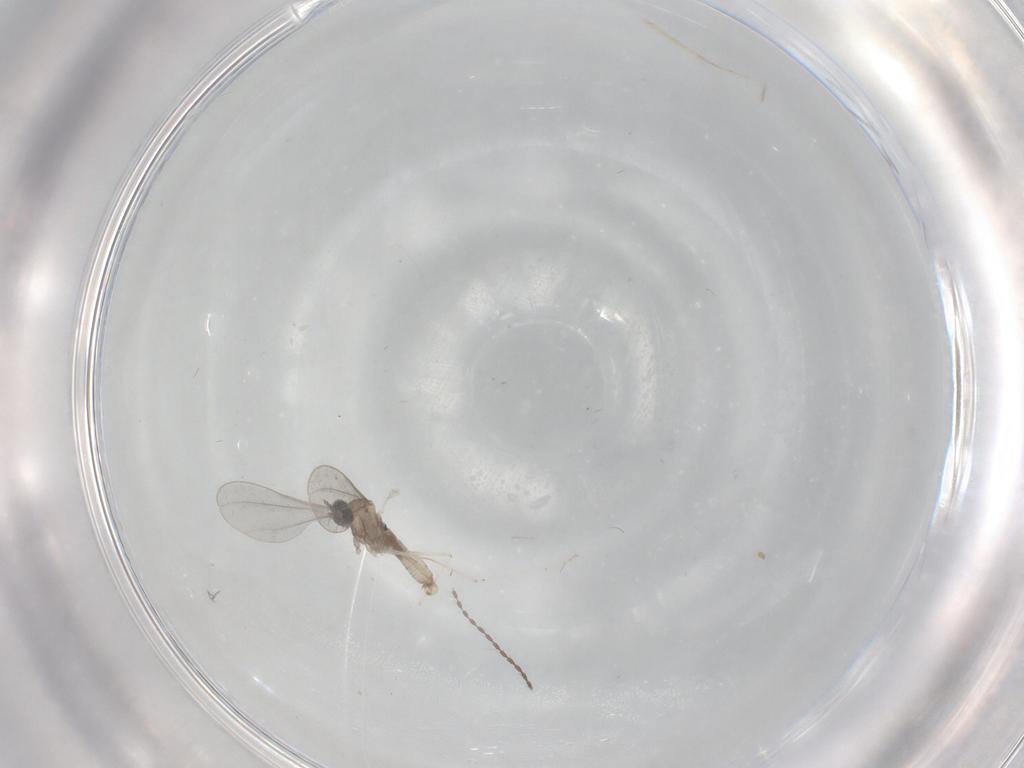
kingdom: Animalia
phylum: Arthropoda
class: Insecta
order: Diptera
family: Cecidomyiidae
